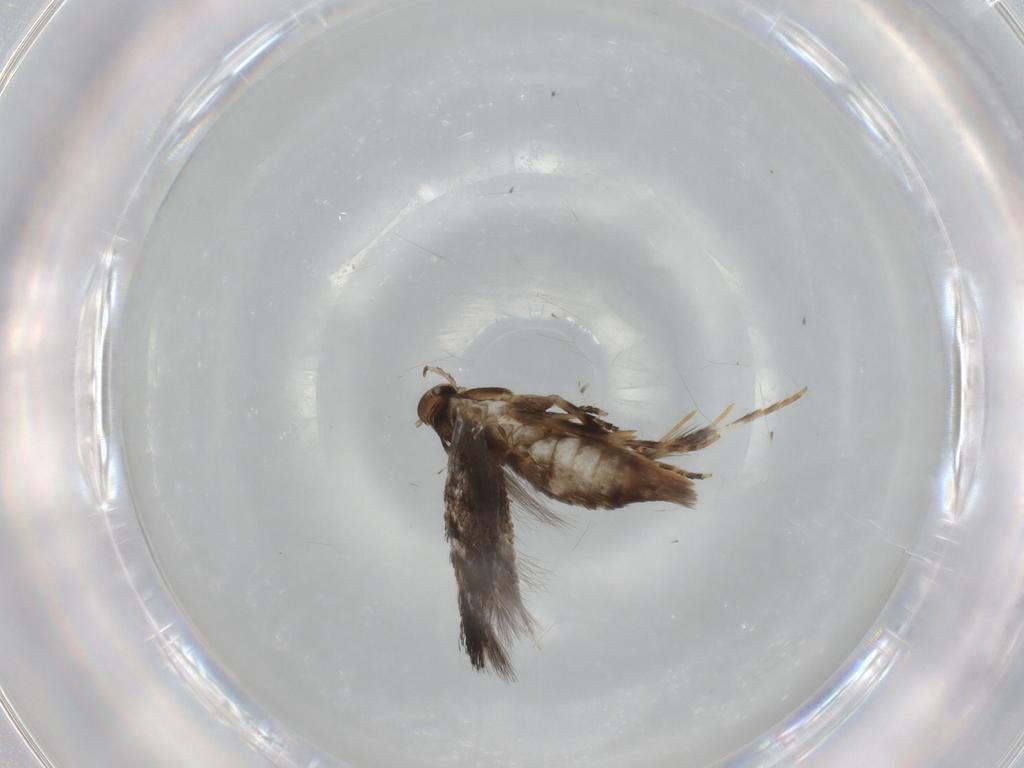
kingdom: Animalia
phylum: Arthropoda
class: Insecta
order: Lepidoptera
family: Elachistidae
